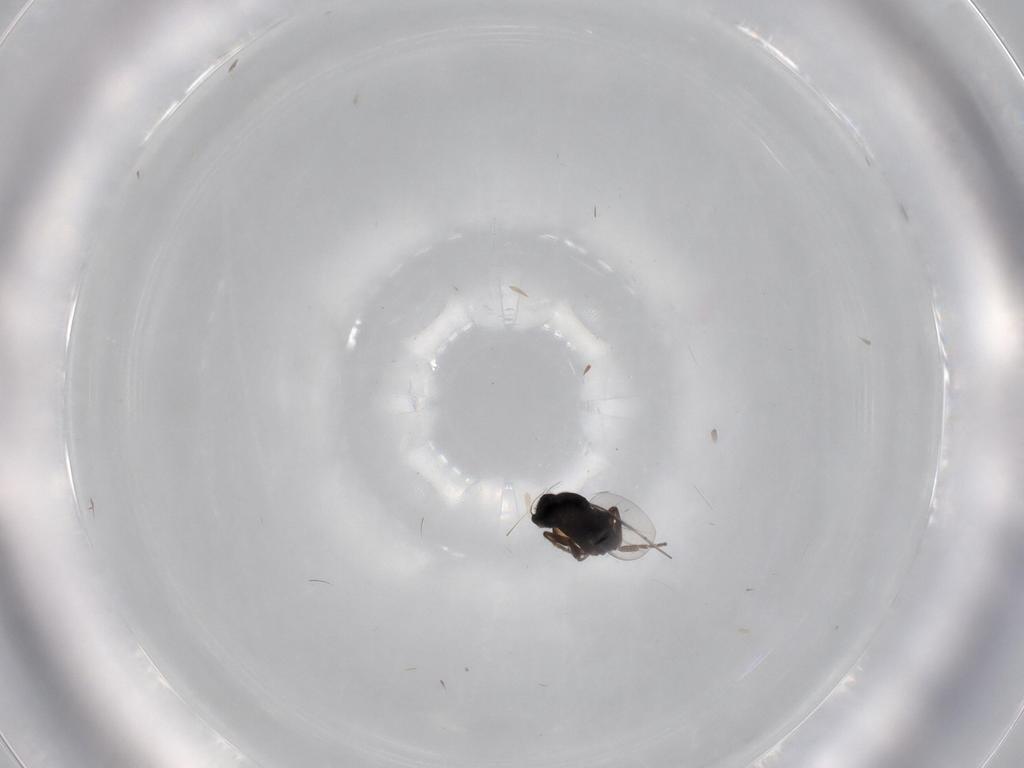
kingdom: Animalia
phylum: Arthropoda
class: Insecta
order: Diptera
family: Phoridae
